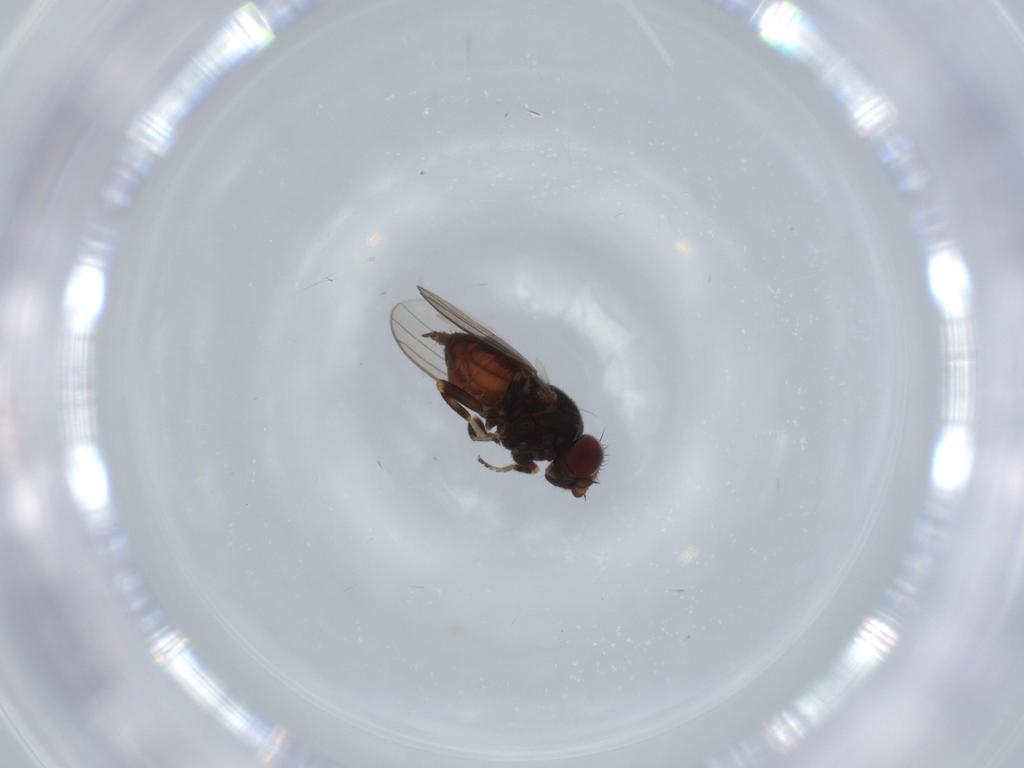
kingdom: Animalia
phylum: Arthropoda
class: Insecta
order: Diptera
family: Chloropidae
